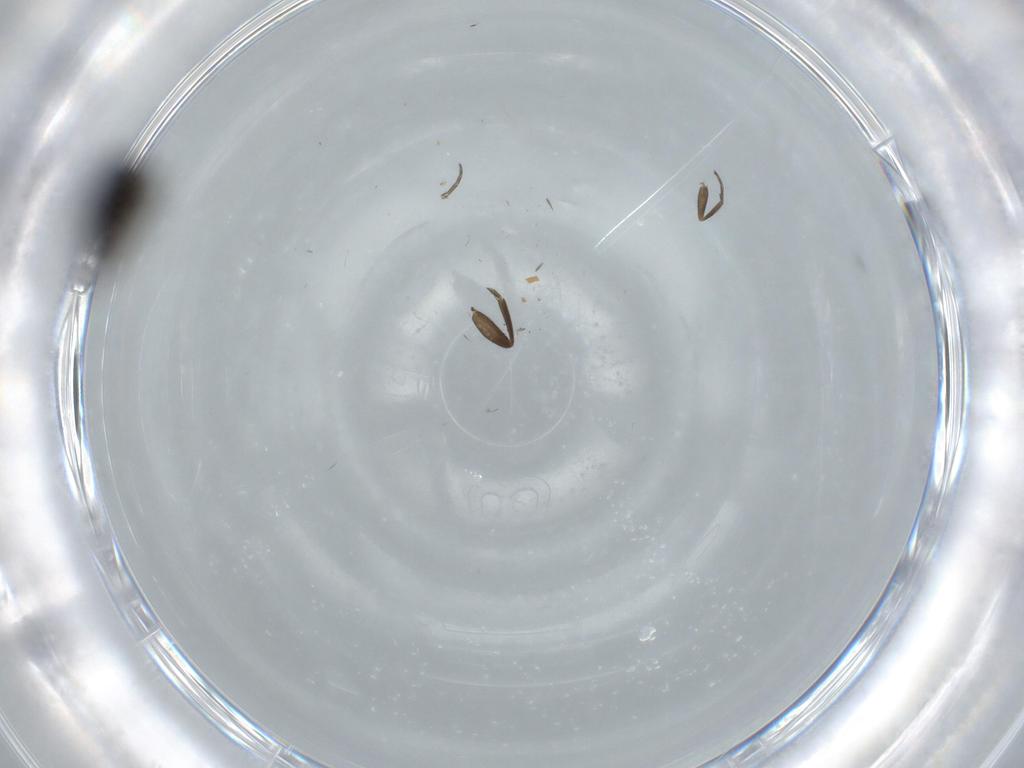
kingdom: Animalia
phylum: Arthropoda
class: Insecta
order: Diptera
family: Phoridae
